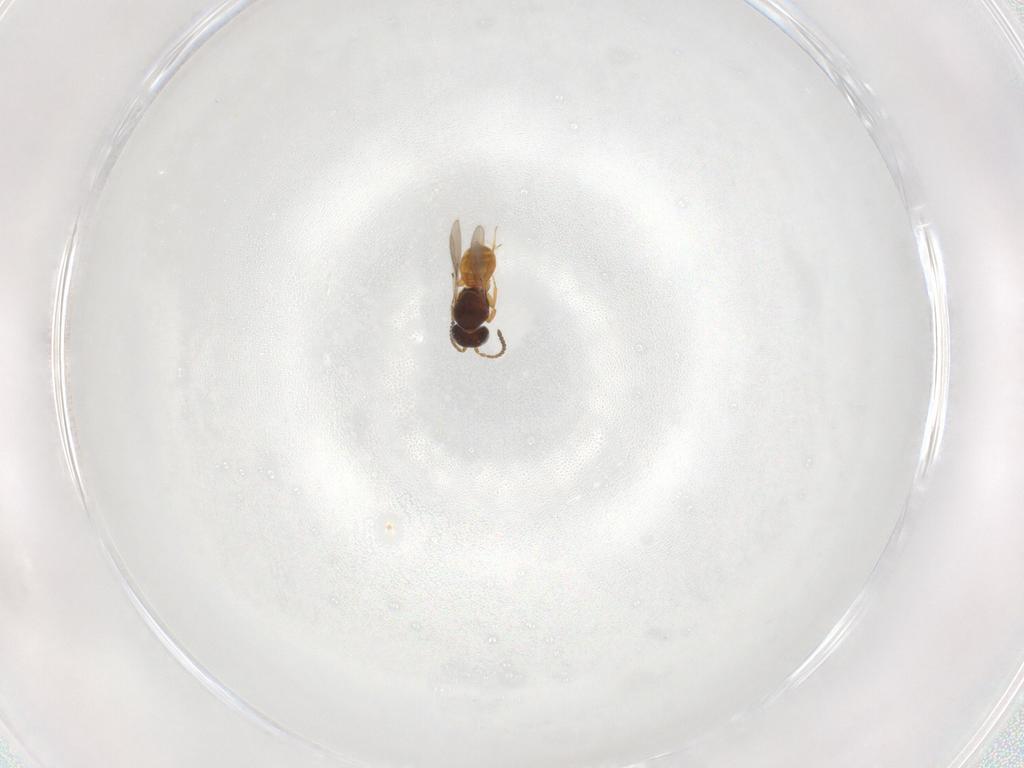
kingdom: Animalia
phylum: Arthropoda
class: Insecta
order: Hymenoptera
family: Scelionidae
